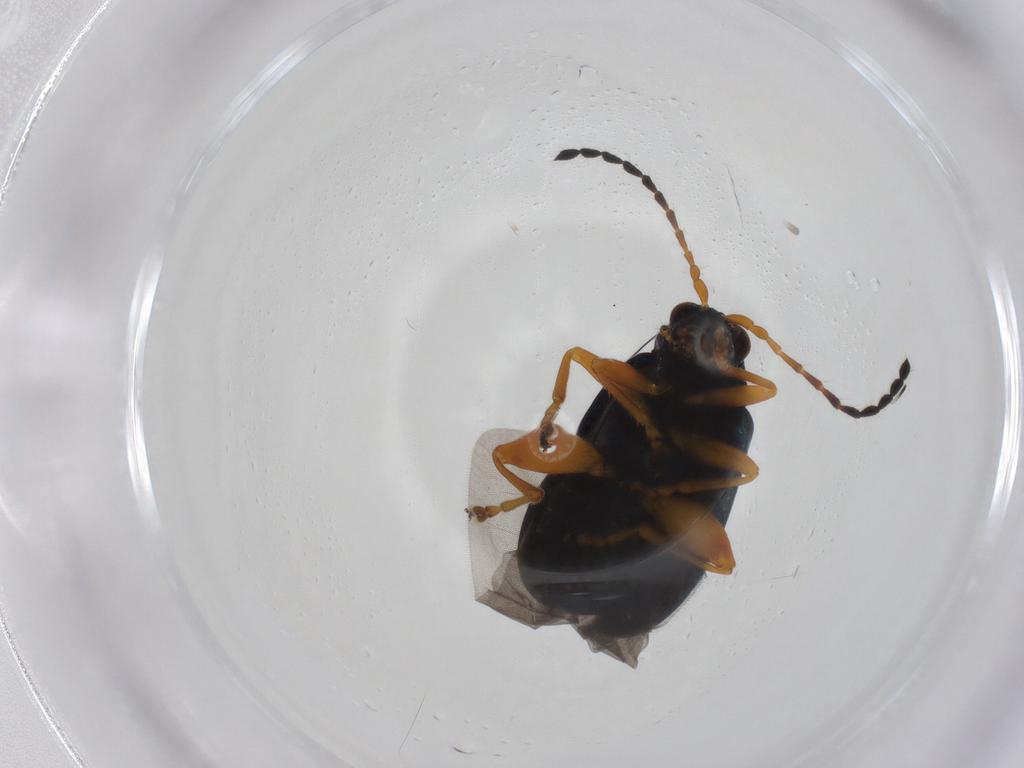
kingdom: Animalia
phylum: Arthropoda
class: Insecta
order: Coleoptera
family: Chrysomelidae
